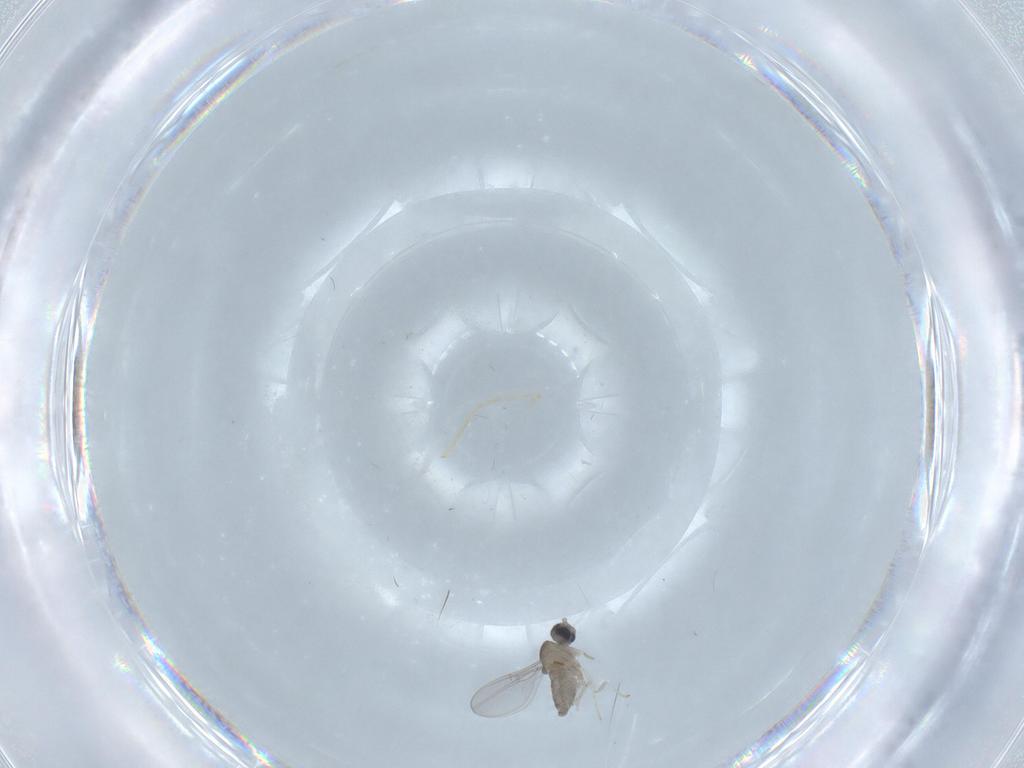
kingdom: Animalia
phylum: Arthropoda
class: Insecta
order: Diptera
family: Cecidomyiidae
